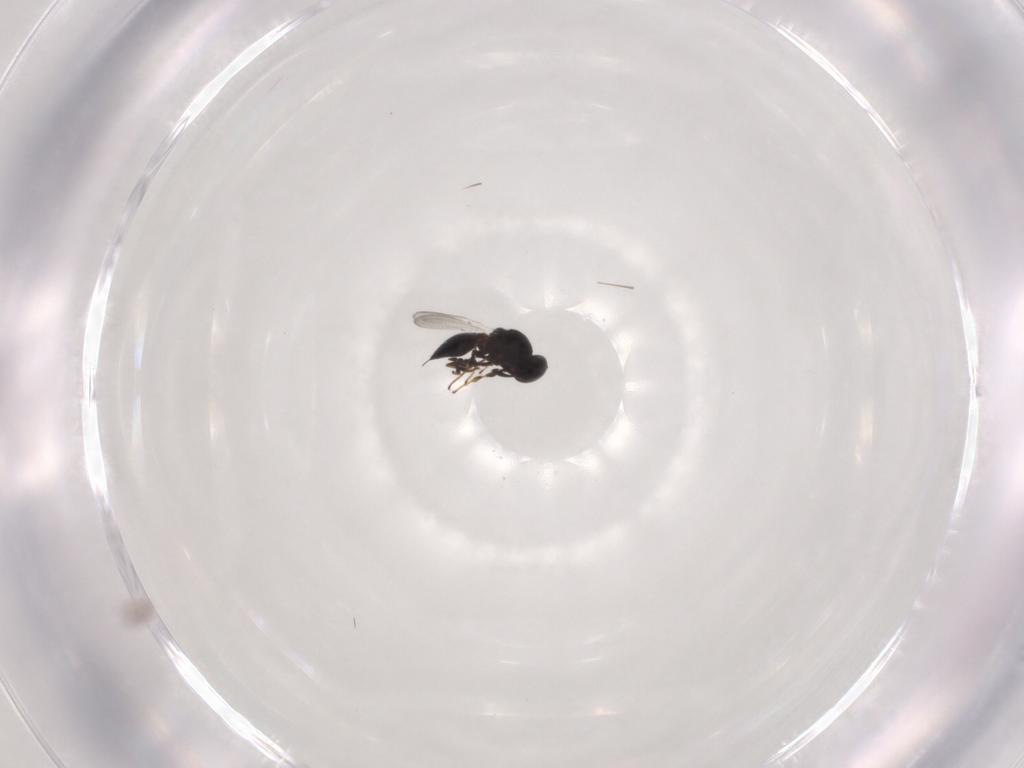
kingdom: Animalia
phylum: Arthropoda
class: Insecta
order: Hymenoptera
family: Platygastridae
